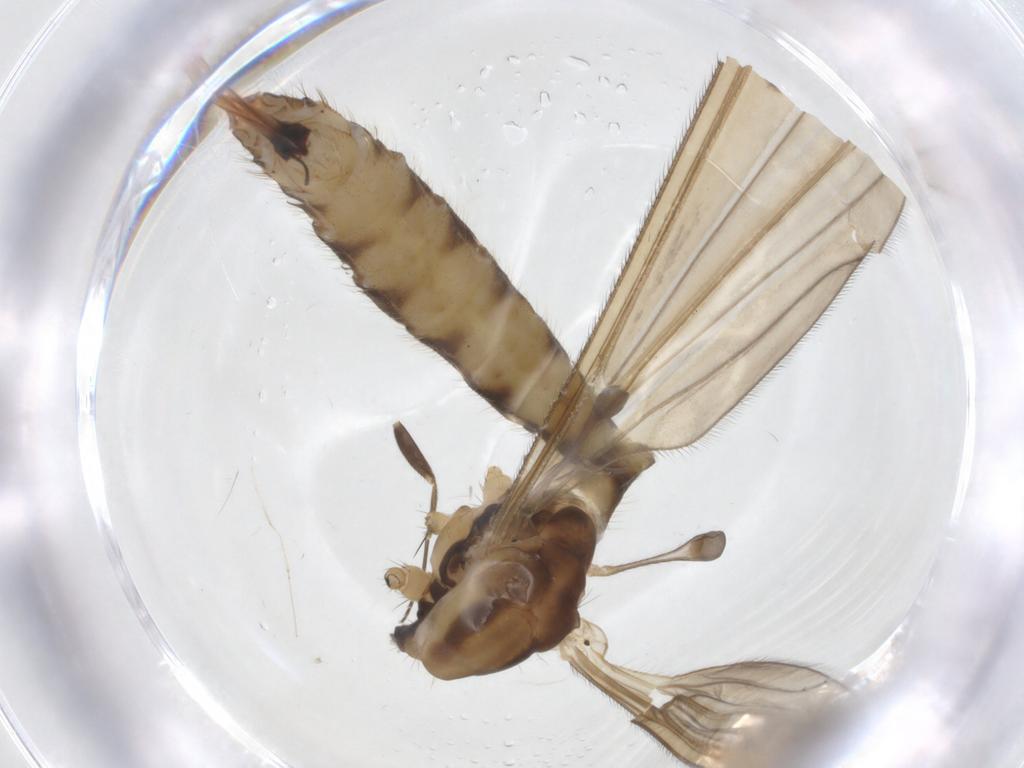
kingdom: Animalia
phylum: Arthropoda
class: Insecta
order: Diptera
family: Limoniidae
